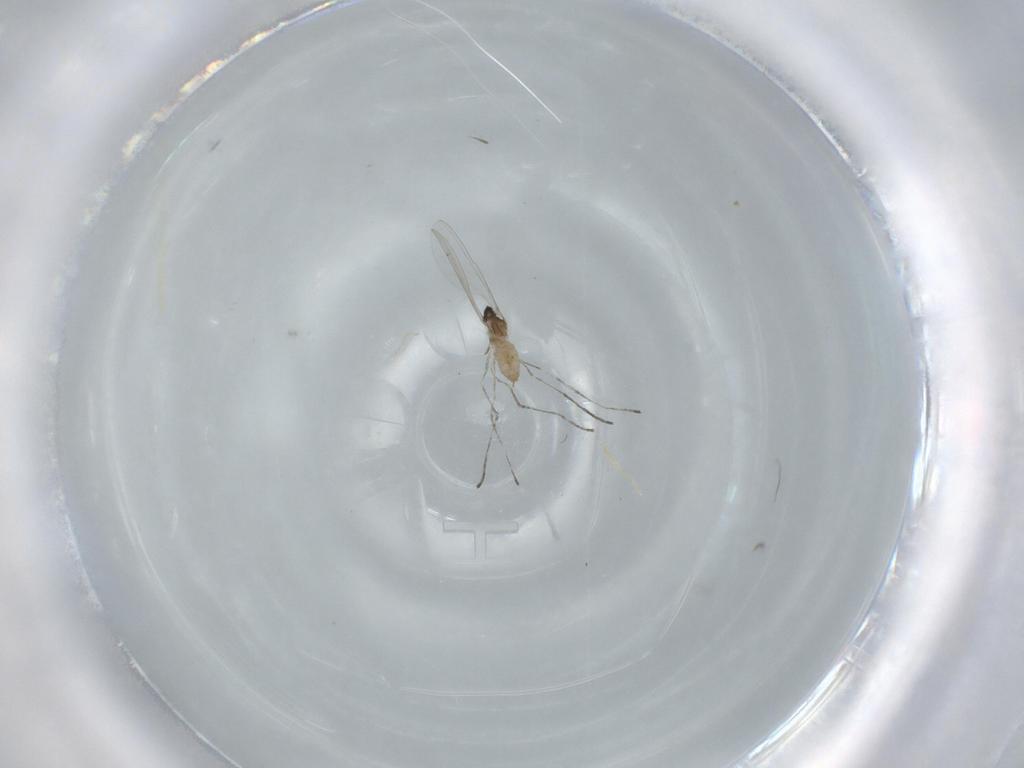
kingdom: Animalia
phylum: Arthropoda
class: Insecta
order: Diptera
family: Sciaridae
